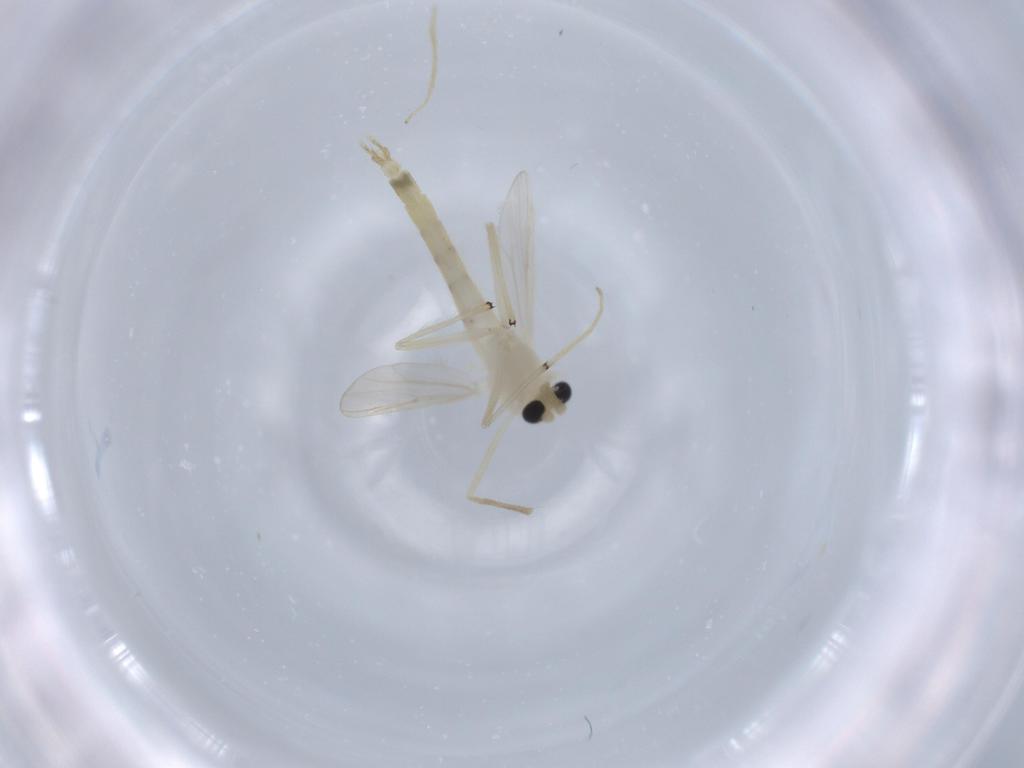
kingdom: Animalia
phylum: Arthropoda
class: Insecta
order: Diptera
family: Chironomidae
